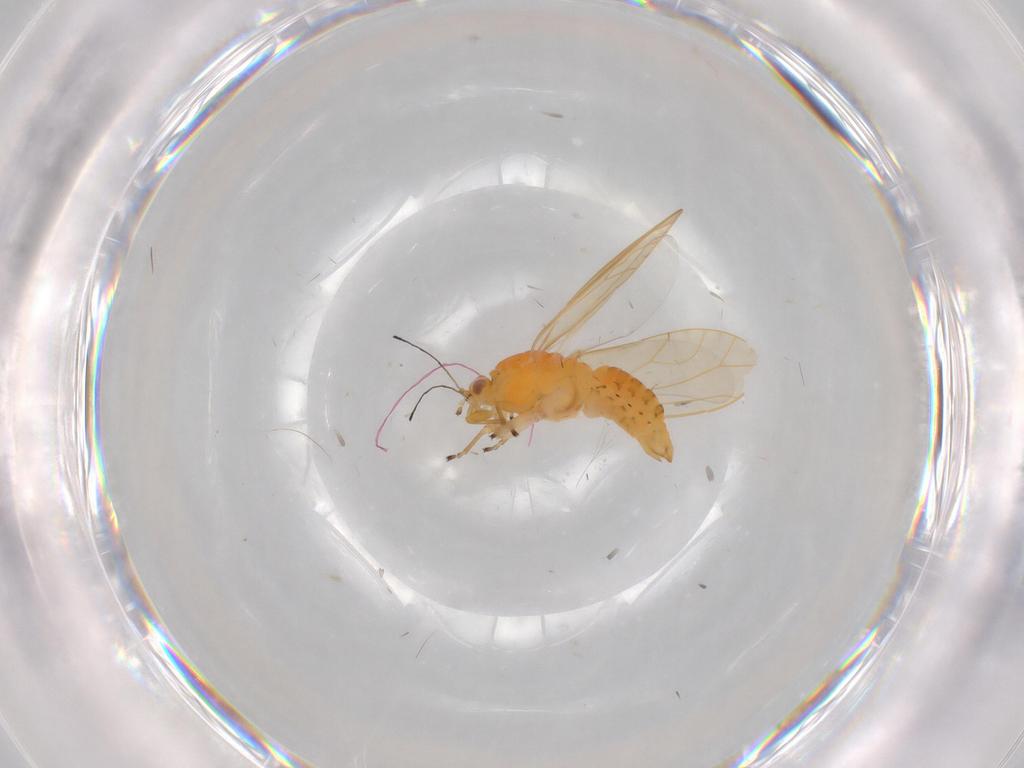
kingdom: Animalia
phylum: Arthropoda
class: Insecta
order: Hemiptera
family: Triozidae
